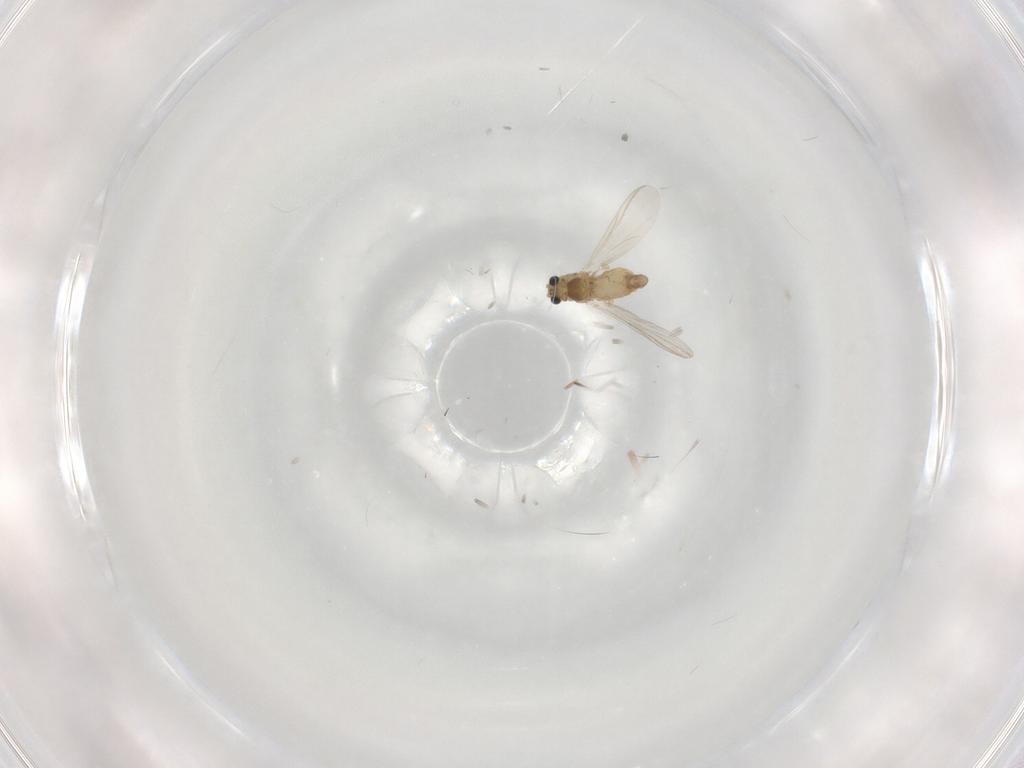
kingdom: Animalia
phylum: Arthropoda
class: Insecta
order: Diptera
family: Chironomidae
